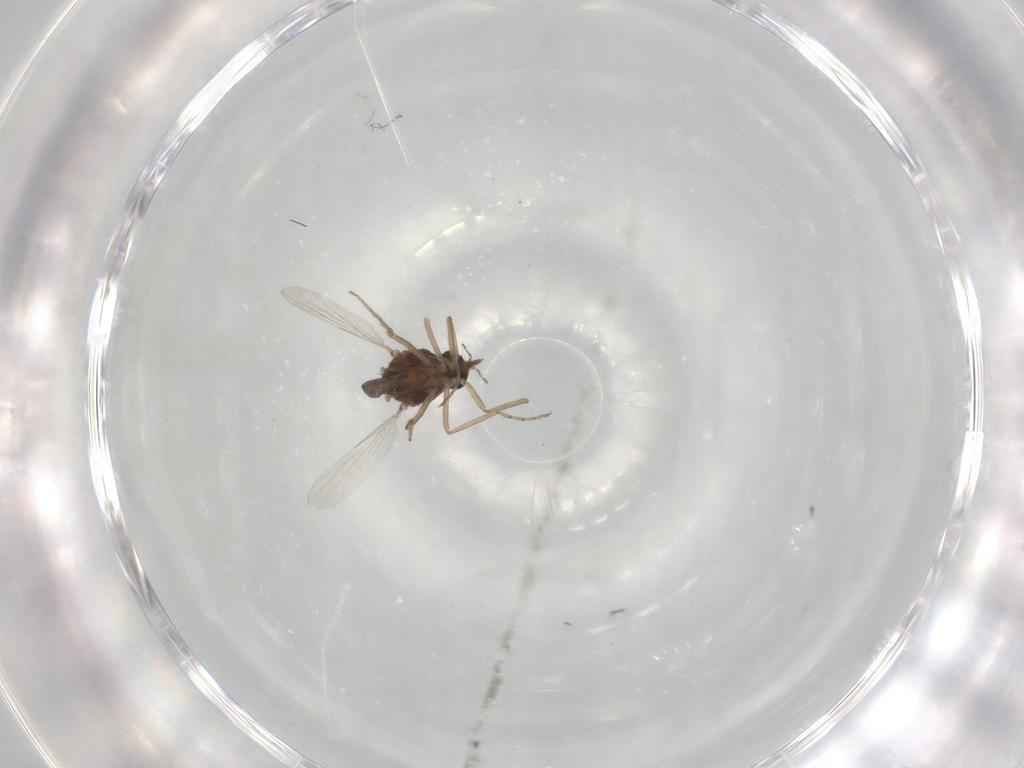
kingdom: Animalia
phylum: Arthropoda
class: Insecta
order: Diptera
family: Ceratopogonidae
